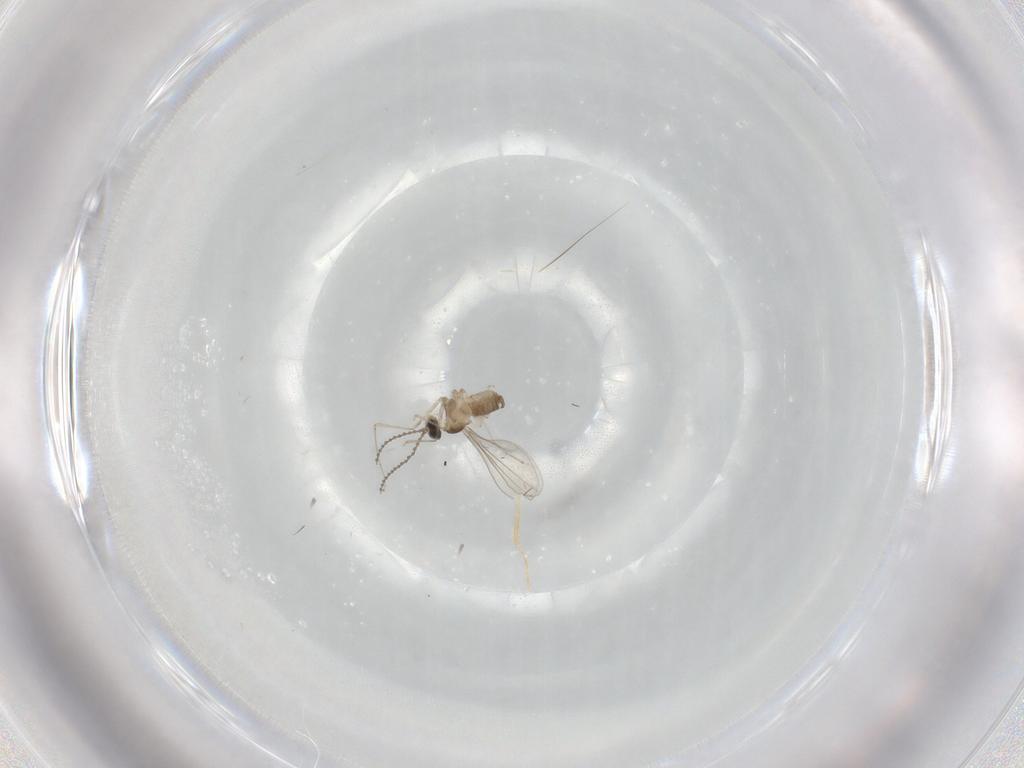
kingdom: Animalia
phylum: Arthropoda
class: Insecta
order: Diptera
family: Cecidomyiidae
